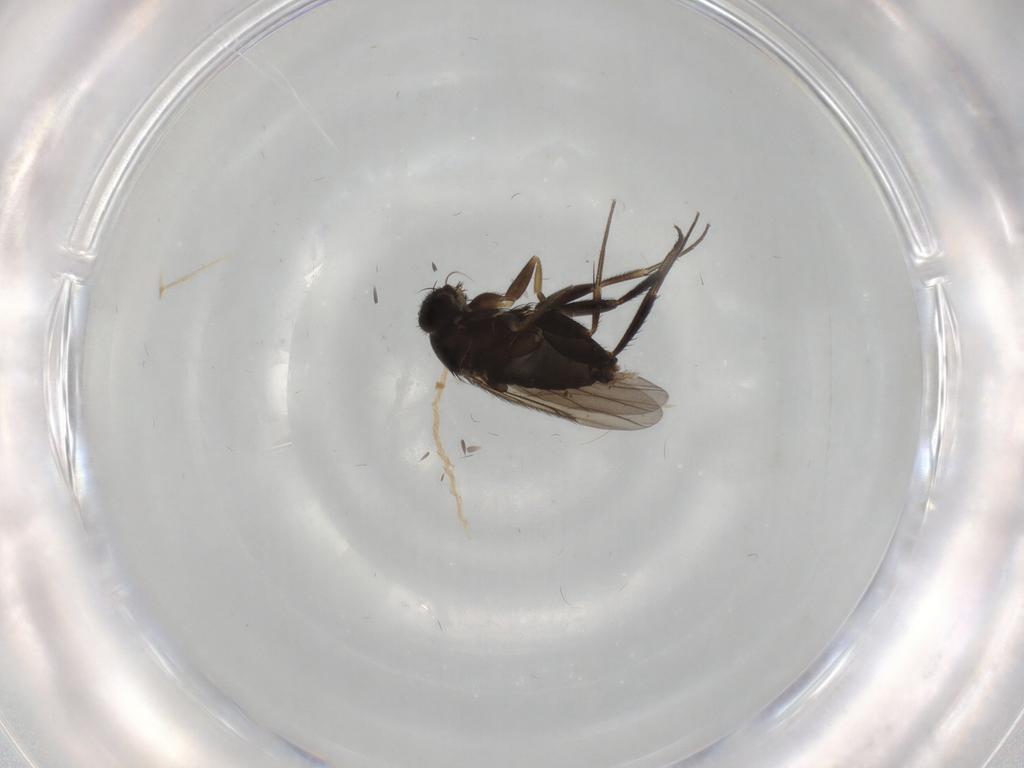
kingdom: Animalia
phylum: Arthropoda
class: Insecta
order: Diptera
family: Phoridae
